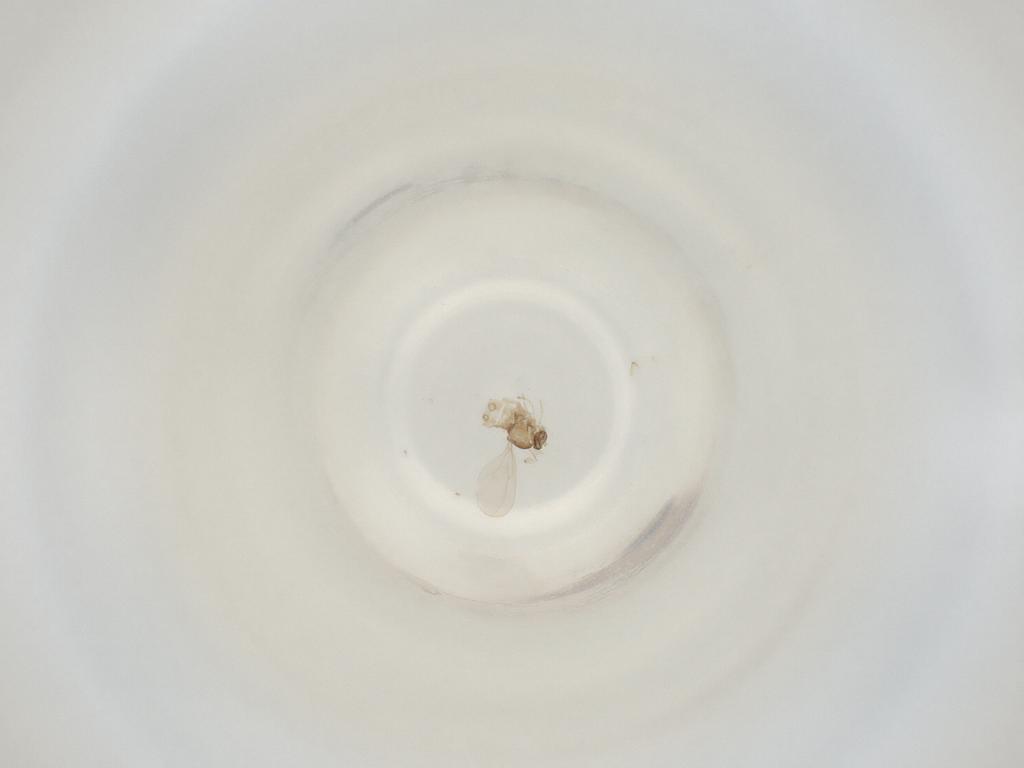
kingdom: Animalia
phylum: Arthropoda
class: Insecta
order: Diptera
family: Cecidomyiidae
